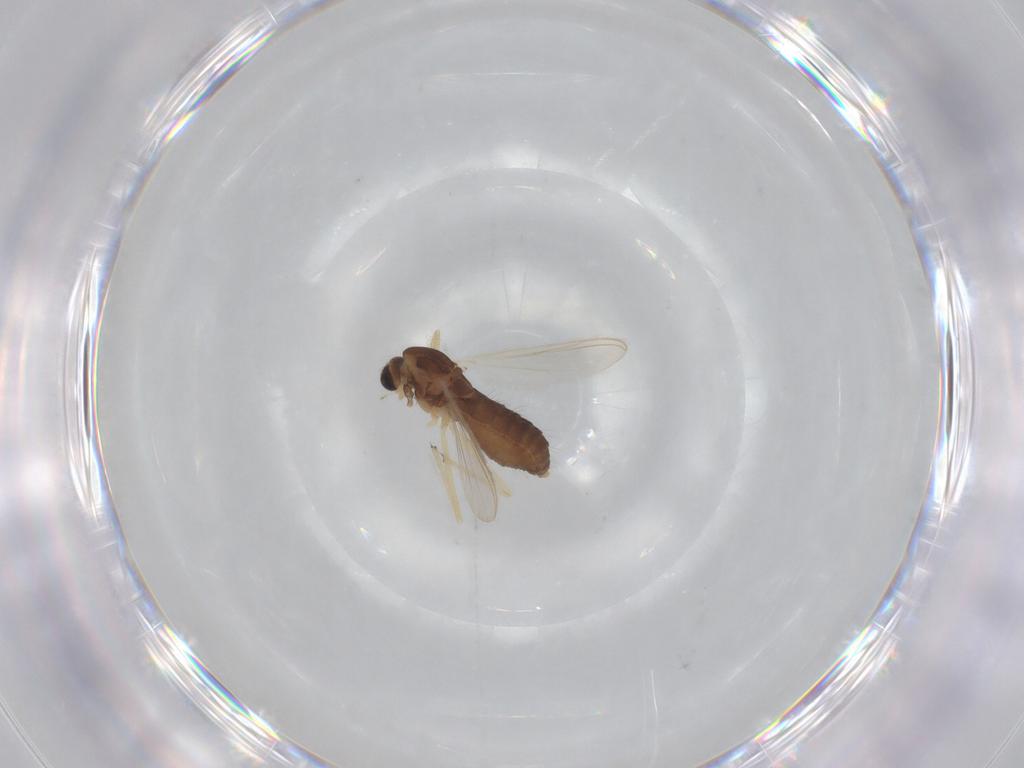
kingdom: Animalia
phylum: Arthropoda
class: Insecta
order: Diptera
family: Chironomidae
